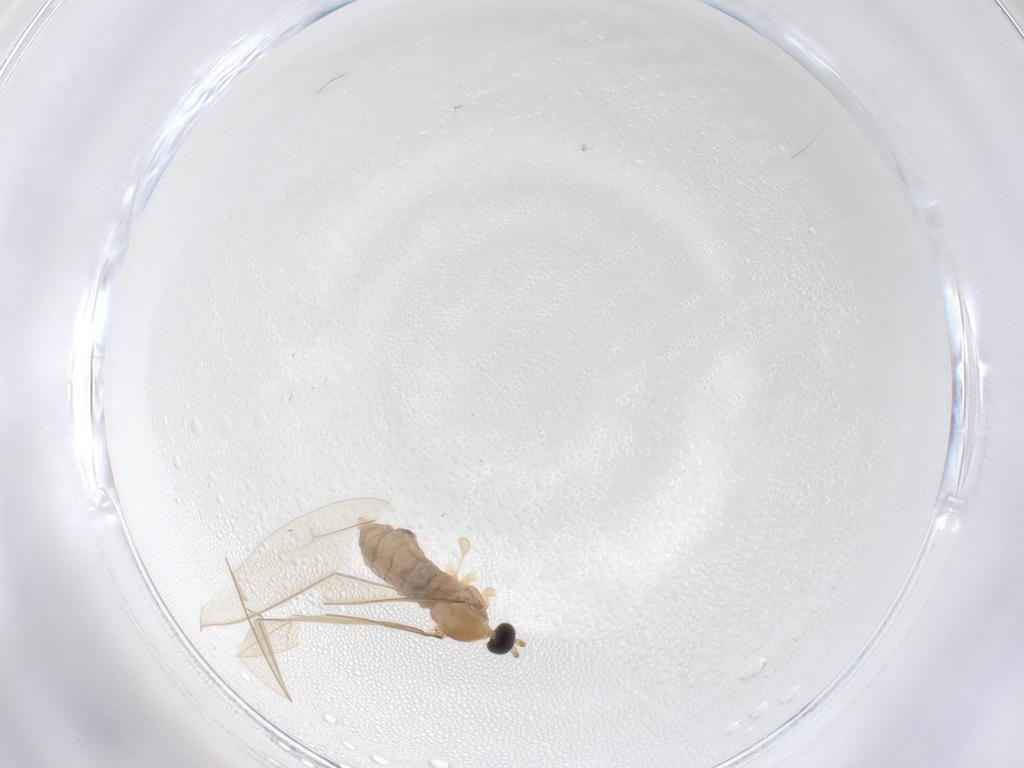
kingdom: Animalia
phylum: Arthropoda
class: Insecta
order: Diptera
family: Cecidomyiidae
